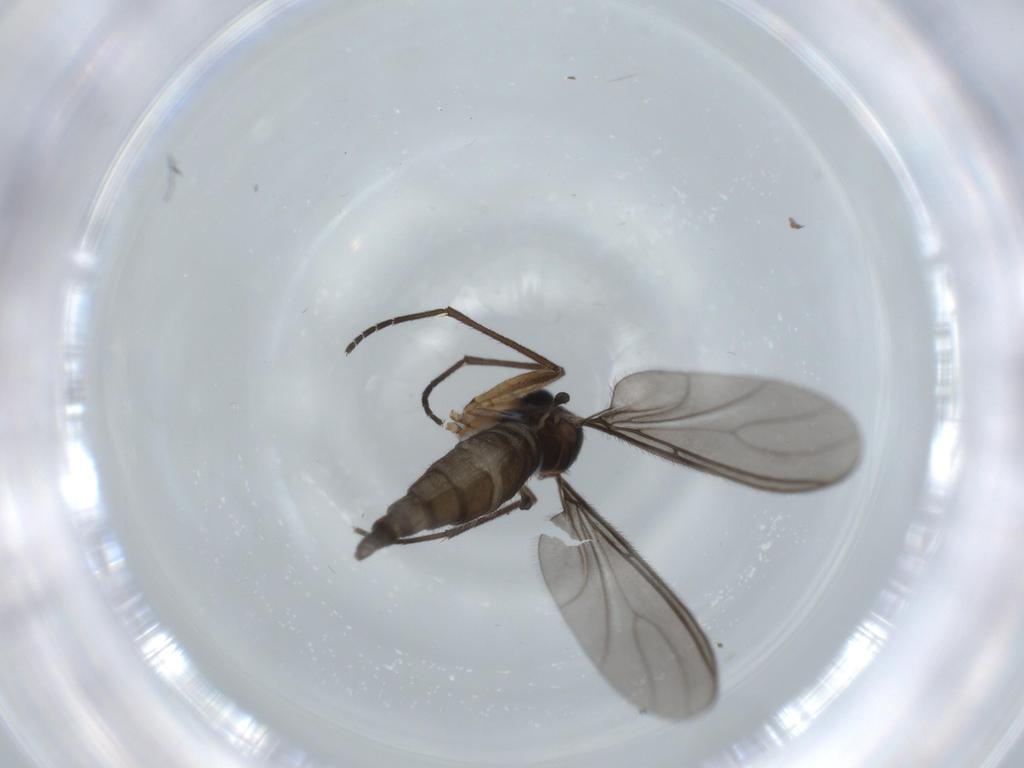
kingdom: Animalia
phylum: Arthropoda
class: Insecta
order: Diptera
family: Sciaridae
